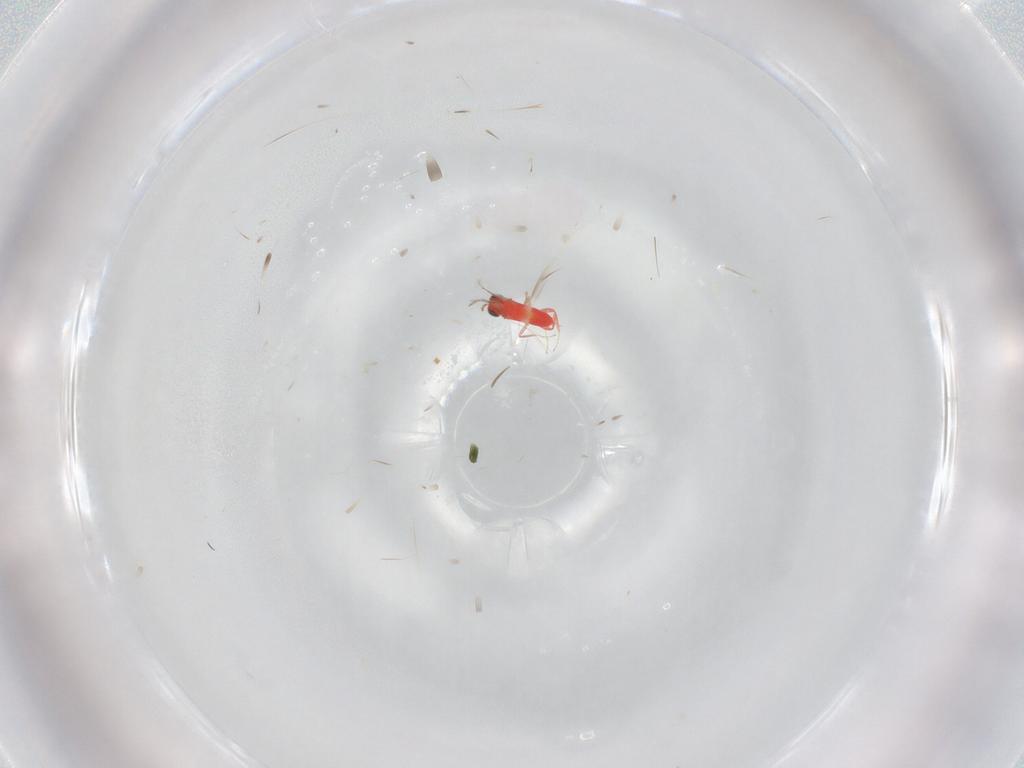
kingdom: Animalia
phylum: Arthropoda
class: Insecta
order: Hymenoptera
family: Trichogrammatidae
